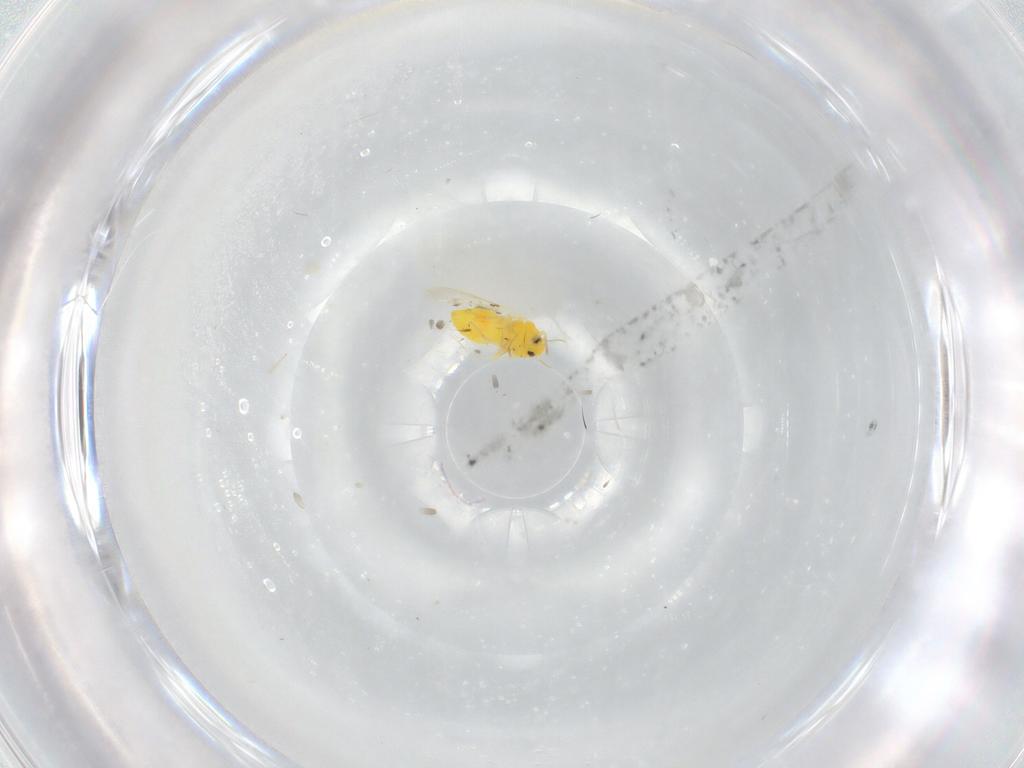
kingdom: Animalia
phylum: Arthropoda
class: Insecta
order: Hemiptera
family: Aleyrodidae
